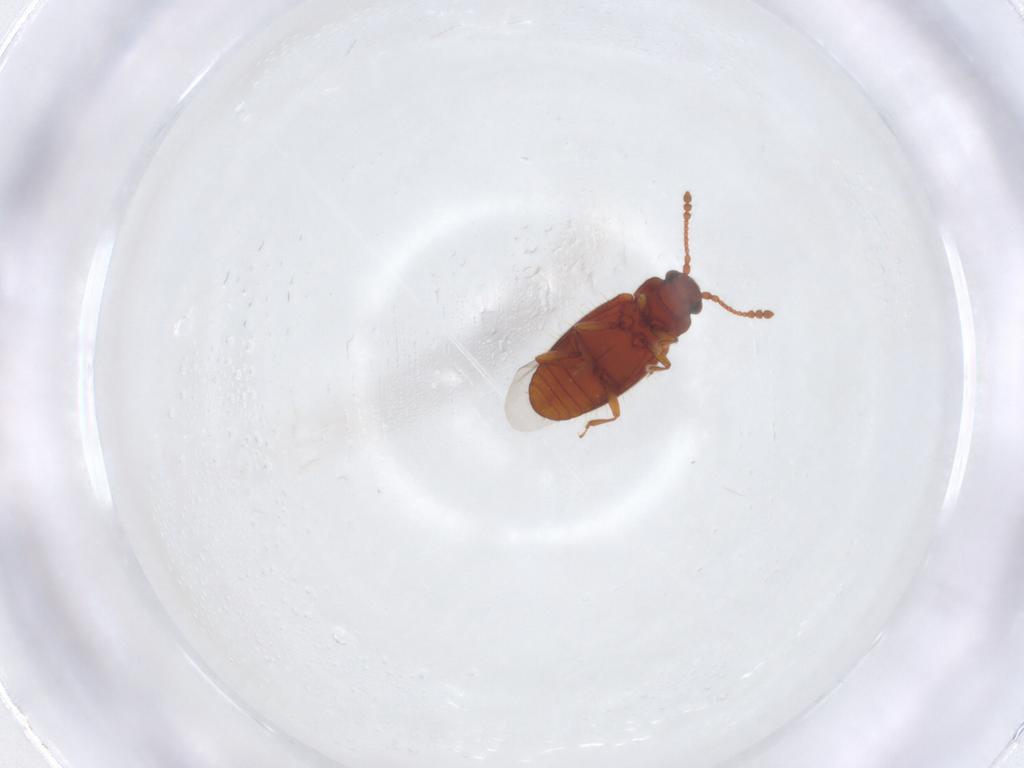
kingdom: Animalia
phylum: Arthropoda
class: Insecta
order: Coleoptera
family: Cryptophagidae
